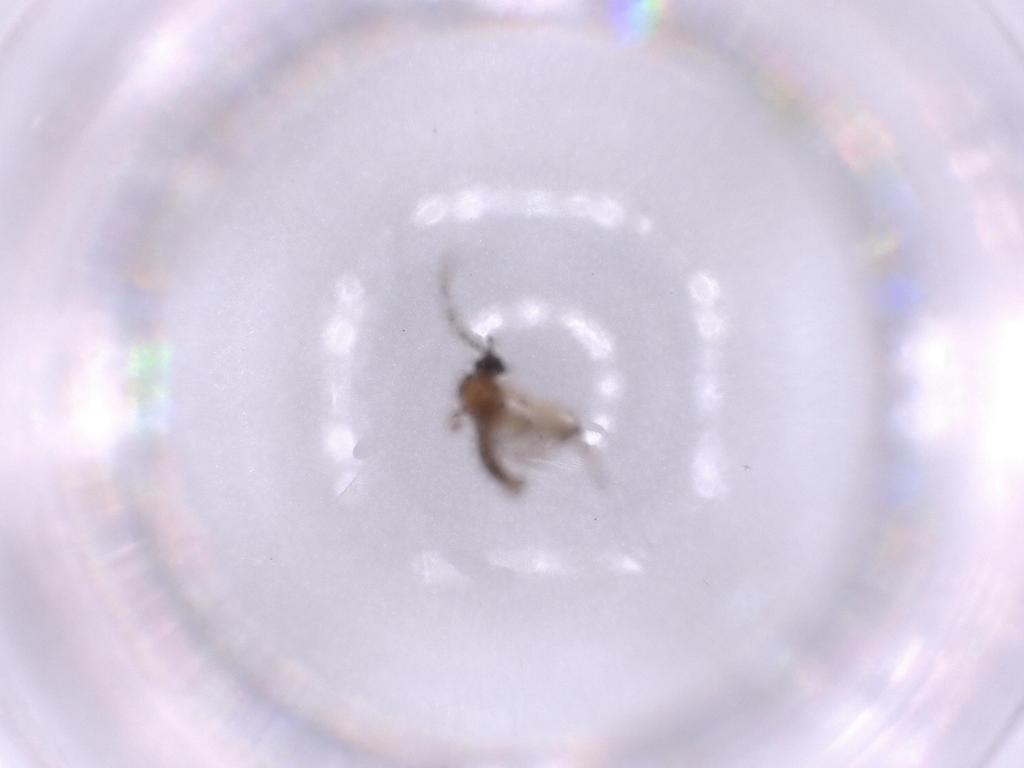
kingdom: Animalia
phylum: Arthropoda
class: Insecta
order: Diptera
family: Sciaridae
